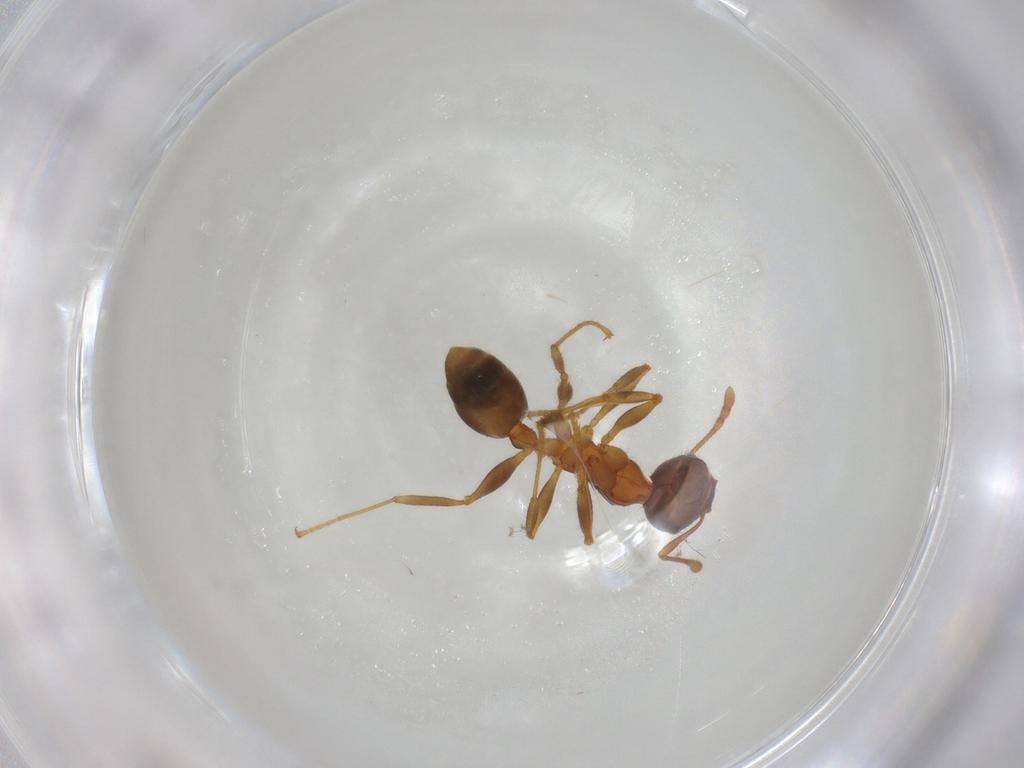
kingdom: Animalia
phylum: Arthropoda
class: Insecta
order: Hymenoptera
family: Formicidae
